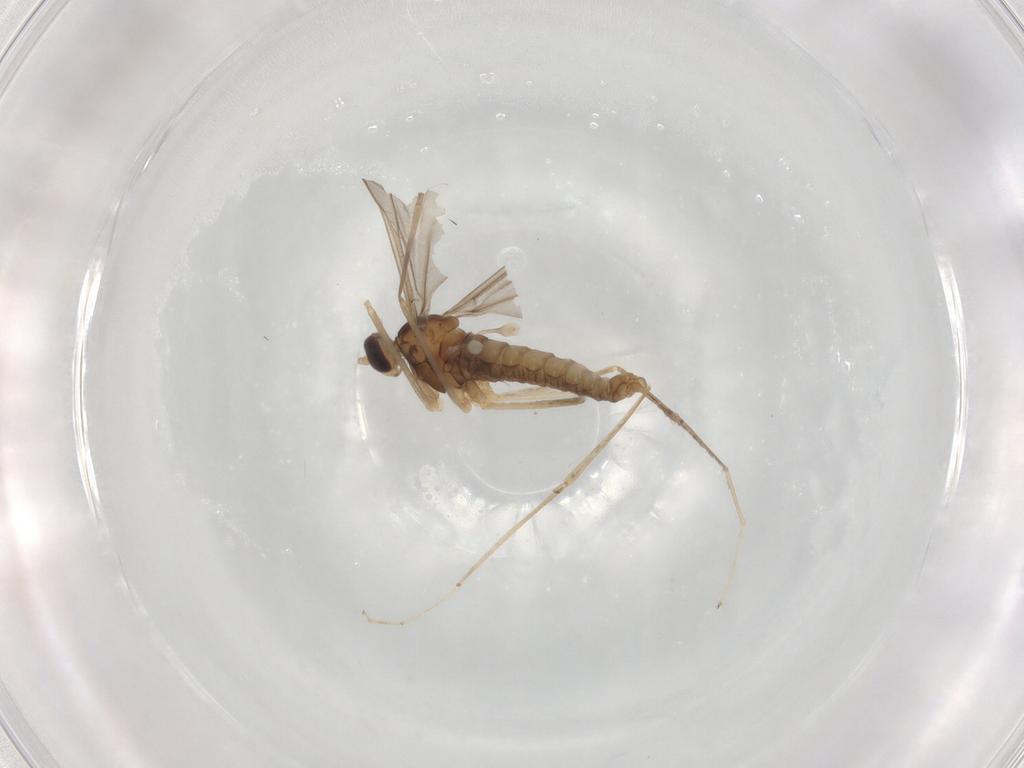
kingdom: Animalia
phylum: Arthropoda
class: Insecta
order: Diptera
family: Cecidomyiidae
